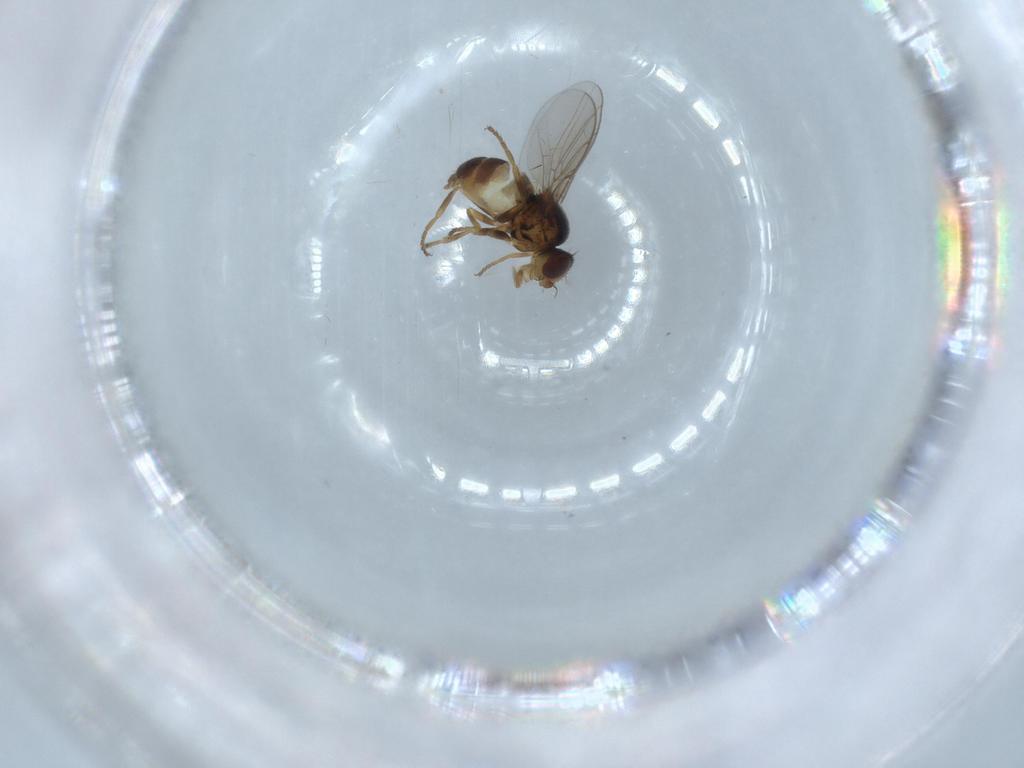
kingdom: Animalia
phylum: Arthropoda
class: Insecta
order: Diptera
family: Chloropidae
